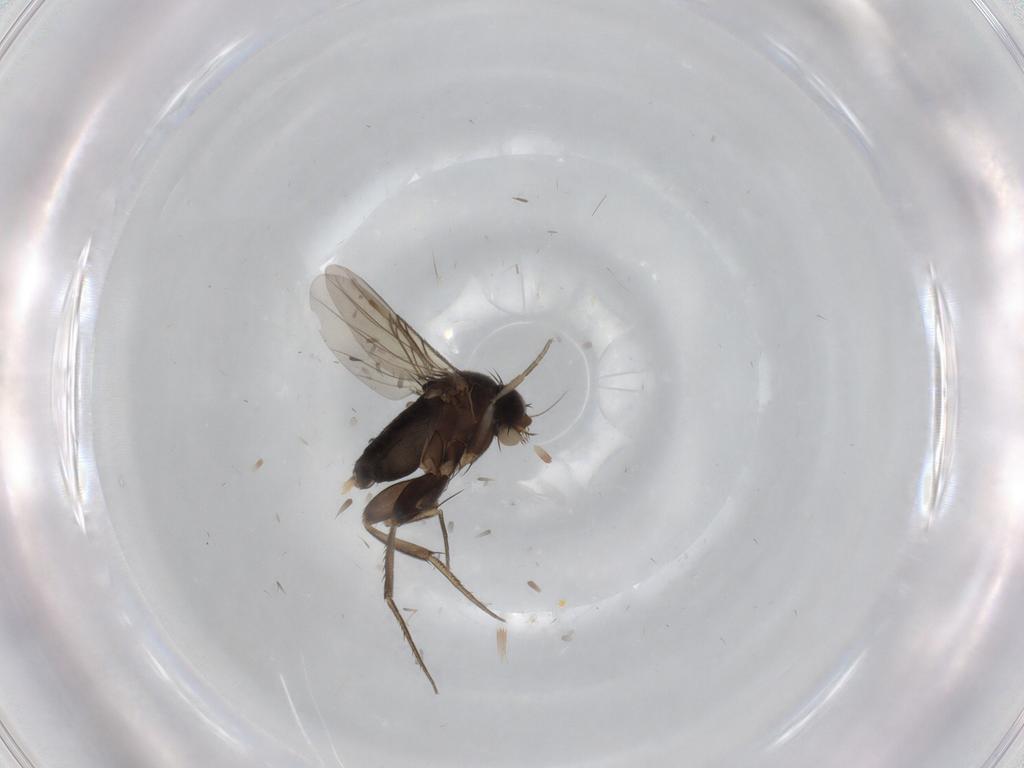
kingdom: Animalia
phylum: Arthropoda
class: Insecta
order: Diptera
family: Phoridae
